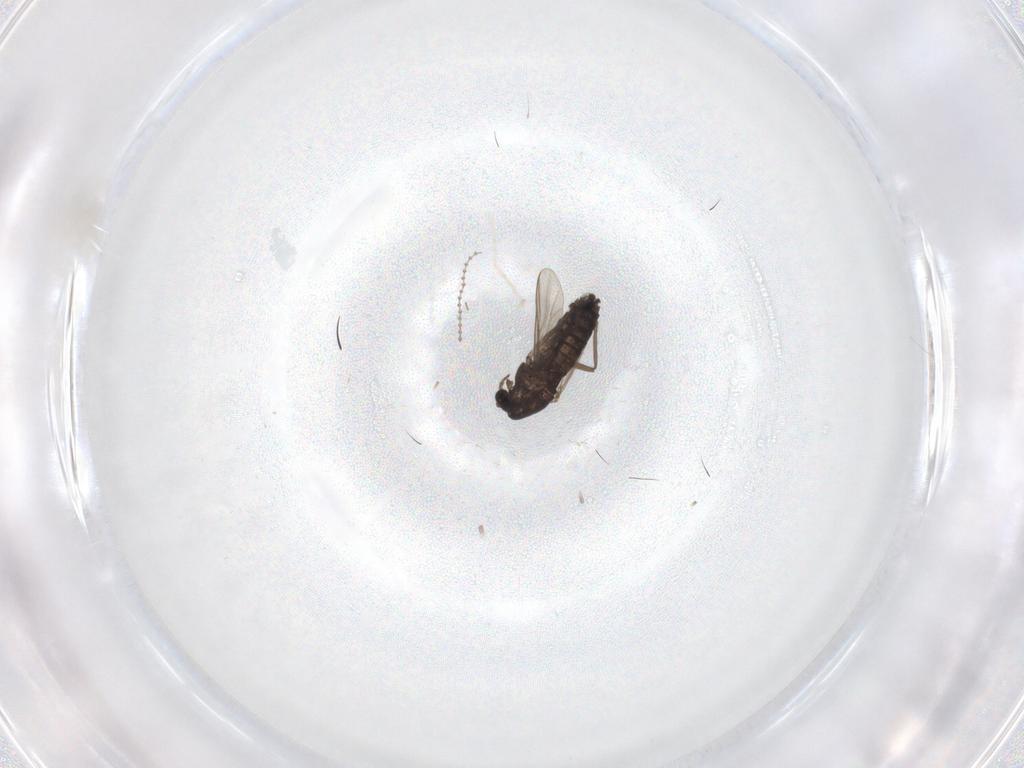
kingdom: Animalia
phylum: Arthropoda
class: Insecta
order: Diptera
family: Cecidomyiidae
